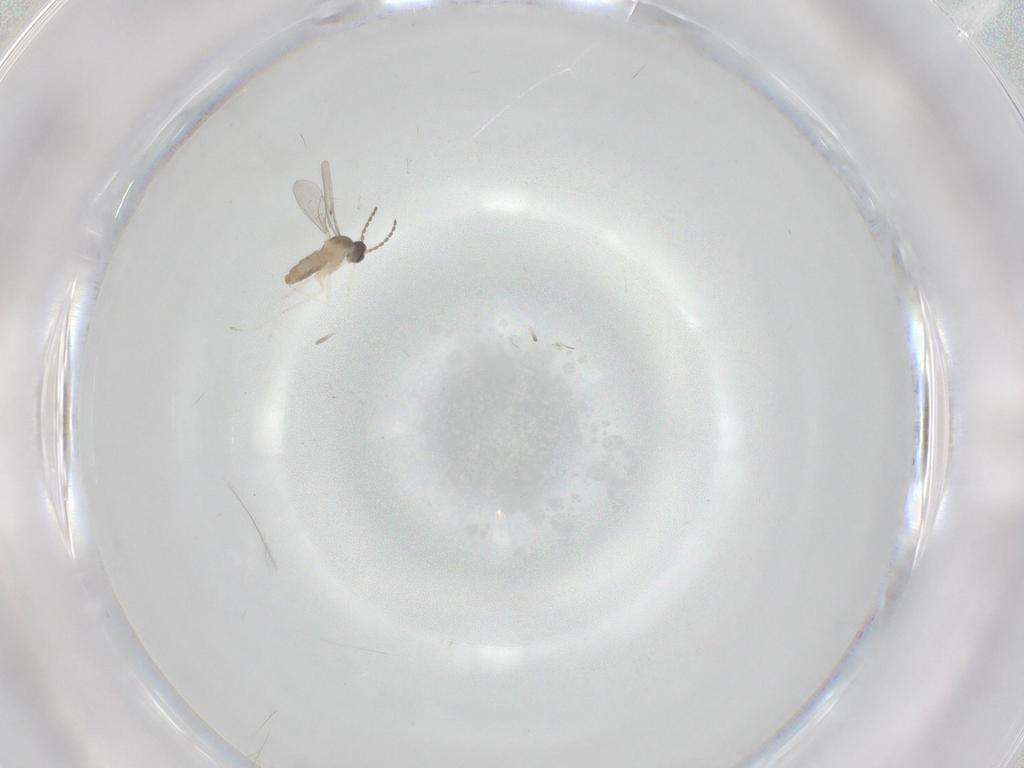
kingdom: Animalia
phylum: Arthropoda
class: Insecta
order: Diptera
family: Cecidomyiidae
